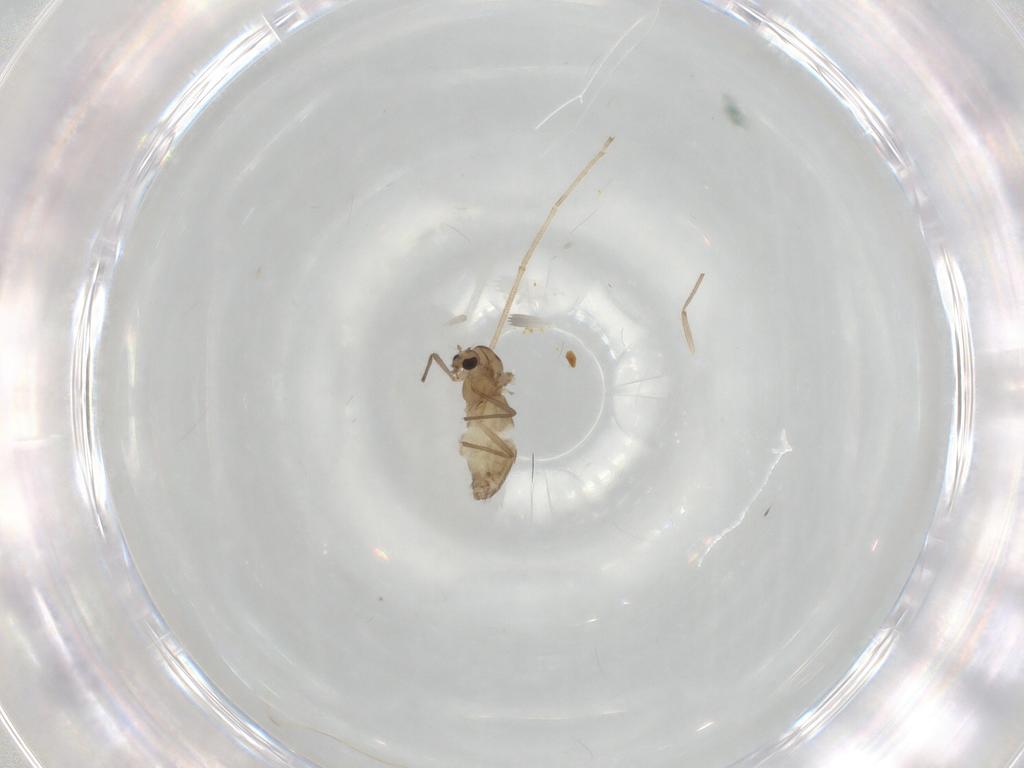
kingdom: Animalia
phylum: Arthropoda
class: Insecta
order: Diptera
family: Chironomidae
